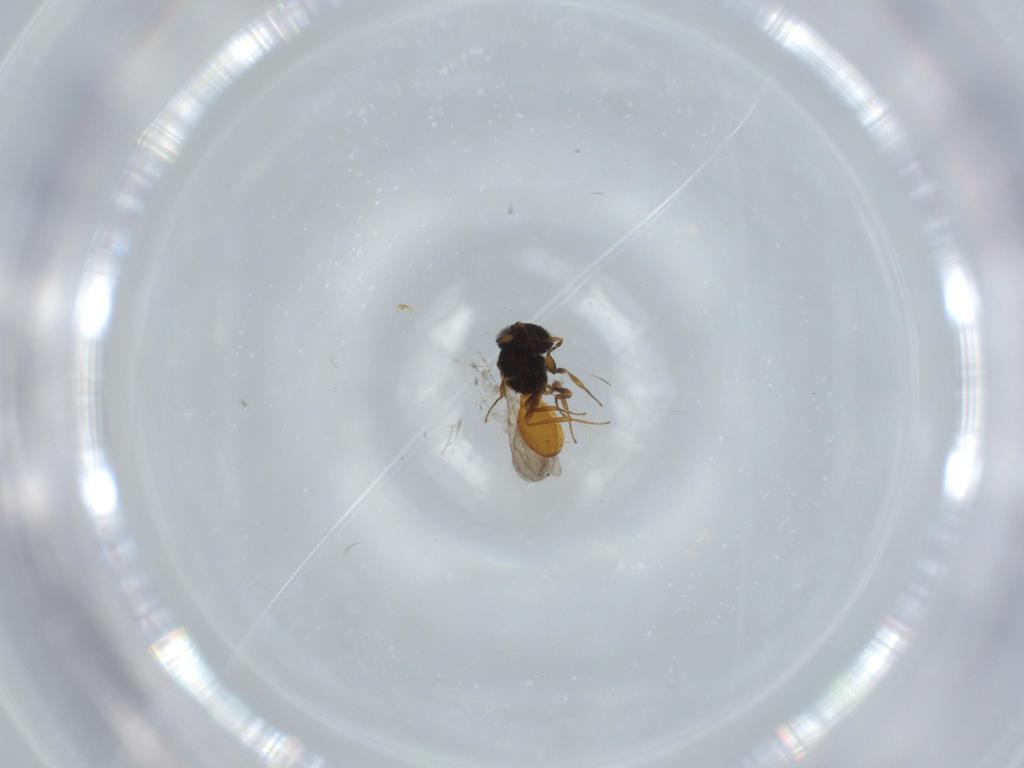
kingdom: Animalia
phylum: Arthropoda
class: Insecta
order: Hymenoptera
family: Scelionidae
